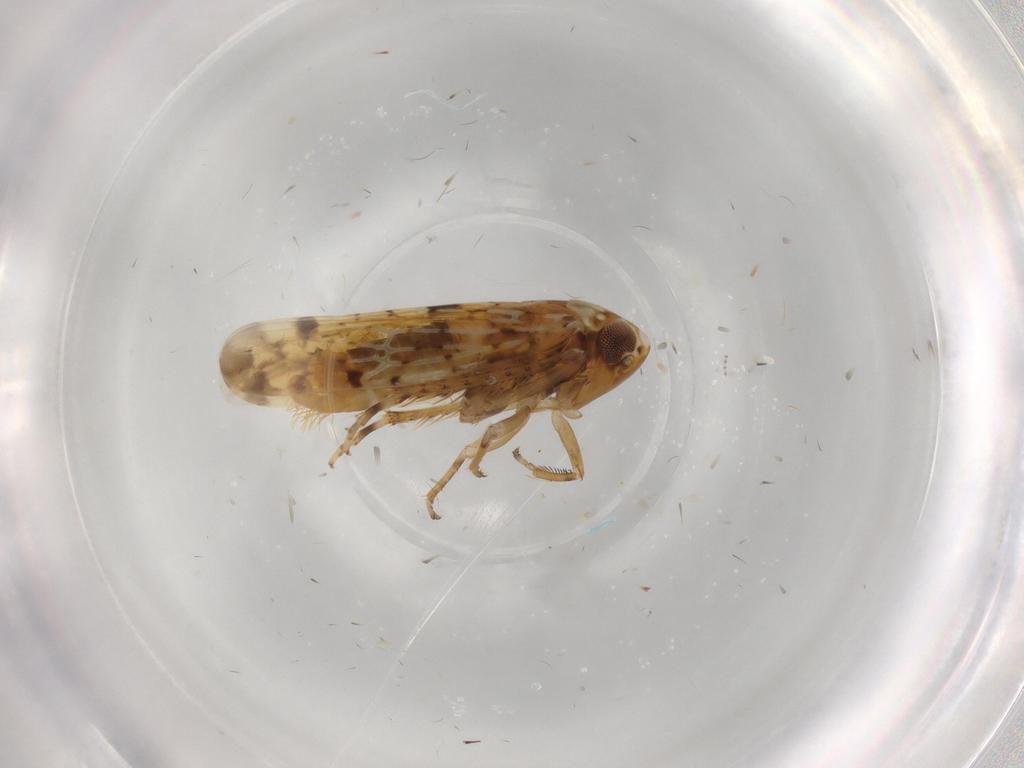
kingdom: Animalia
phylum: Arthropoda
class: Insecta
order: Hemiptera
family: Cicadellidae
